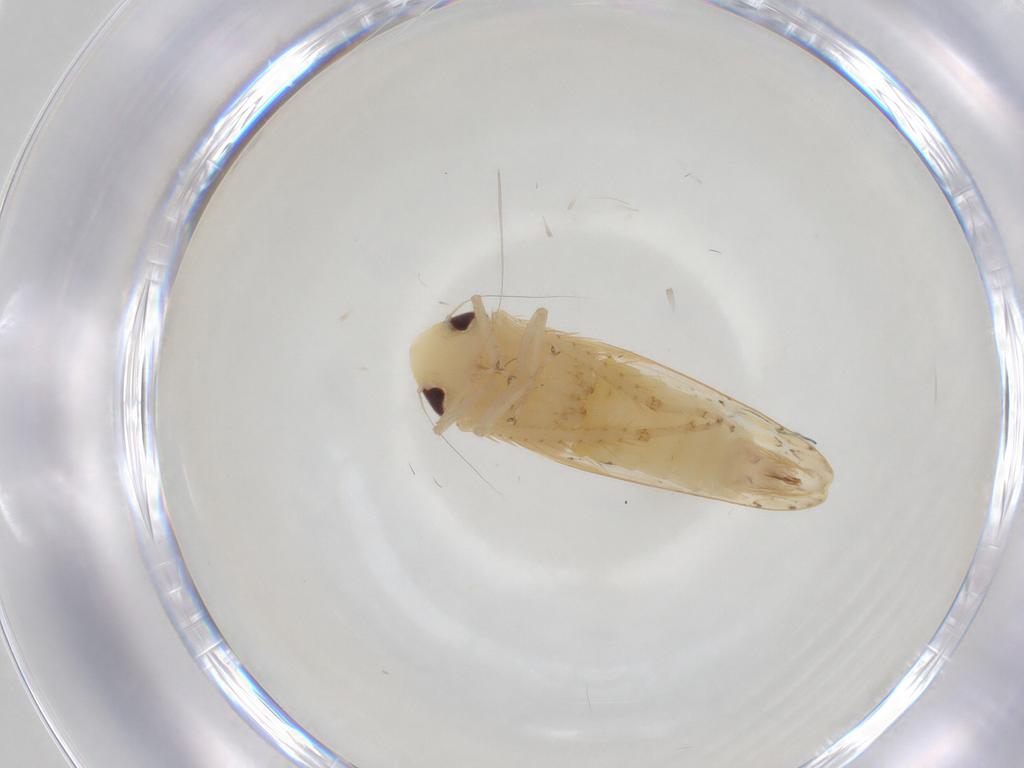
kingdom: Animalia
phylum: Arthropoda
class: Insecta
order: Hemiptera
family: Cicadellidae
